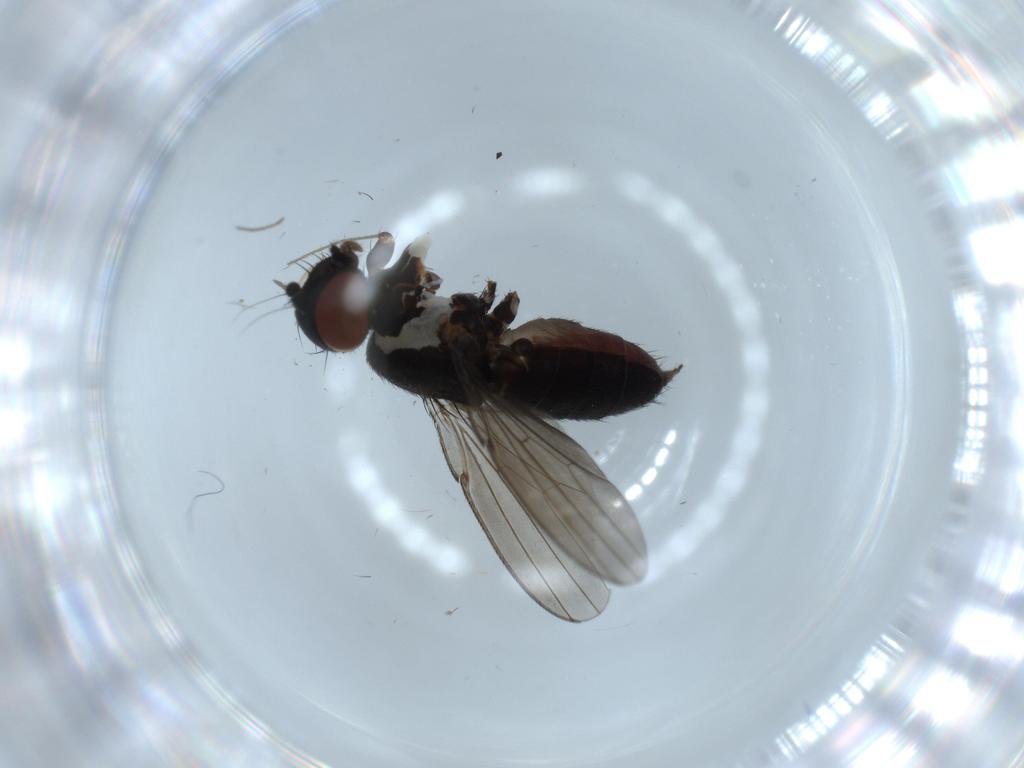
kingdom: Animalia
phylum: Arthropoda
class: Insecta
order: Diptera
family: Milichiidae
